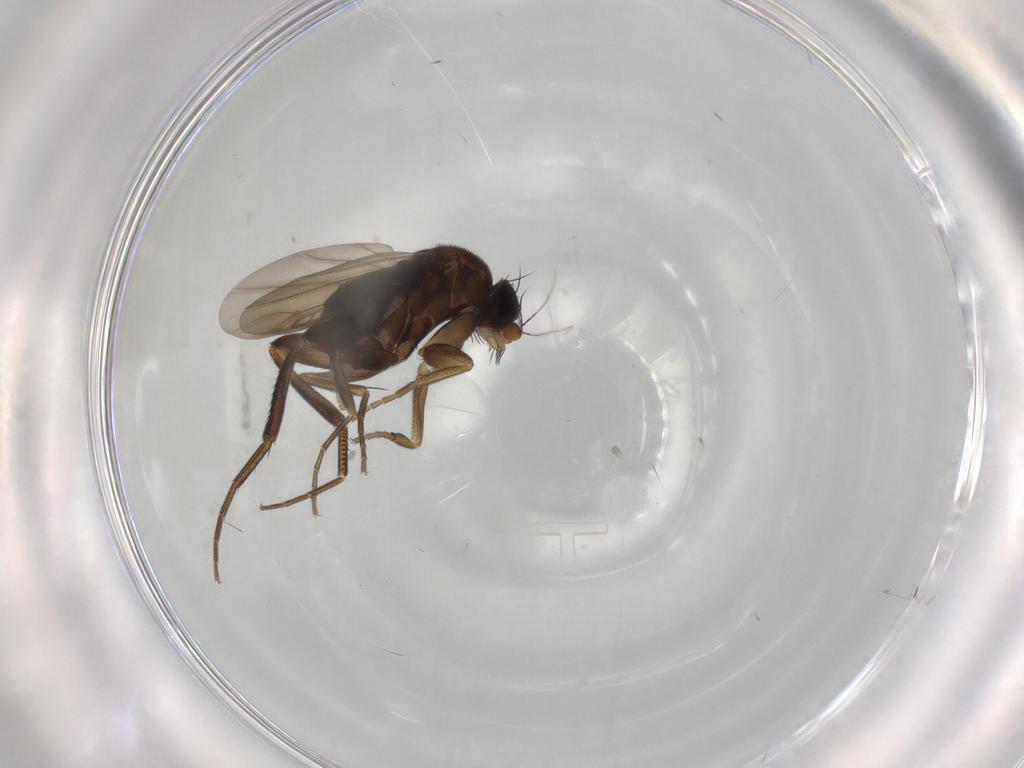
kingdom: Animalia
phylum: Arthropoda
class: Insecta
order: Diptera
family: Phoridae
